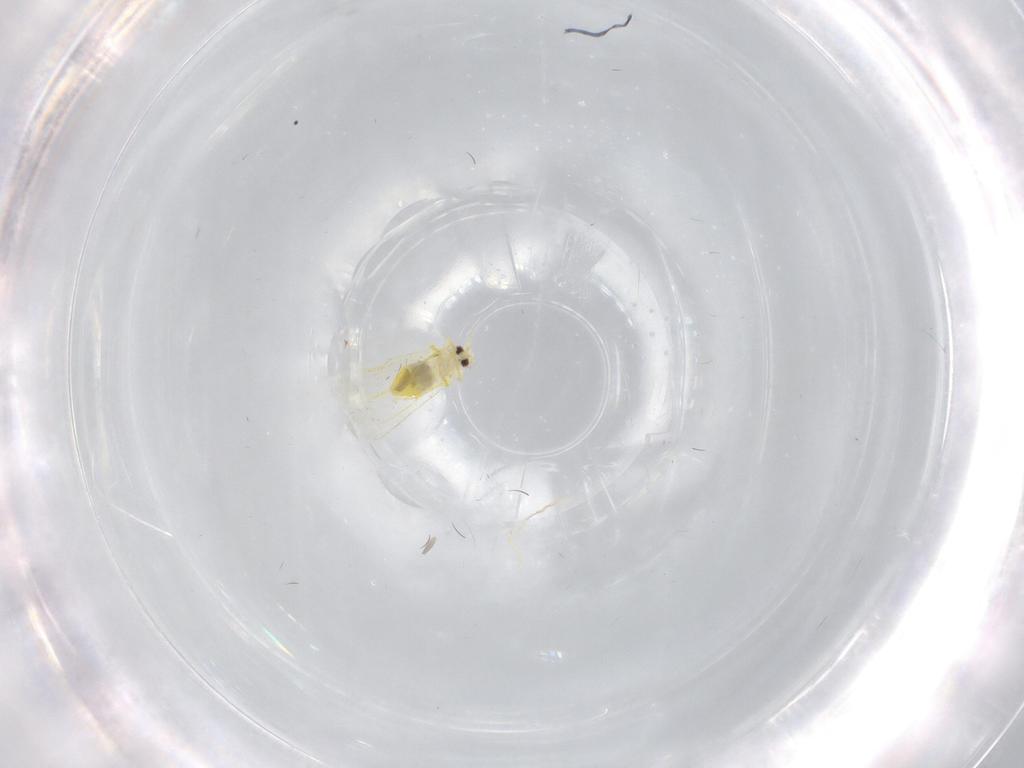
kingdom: Animalia
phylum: Arthropoda
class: Insecta
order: Hemiptera
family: Aleyrodidae
